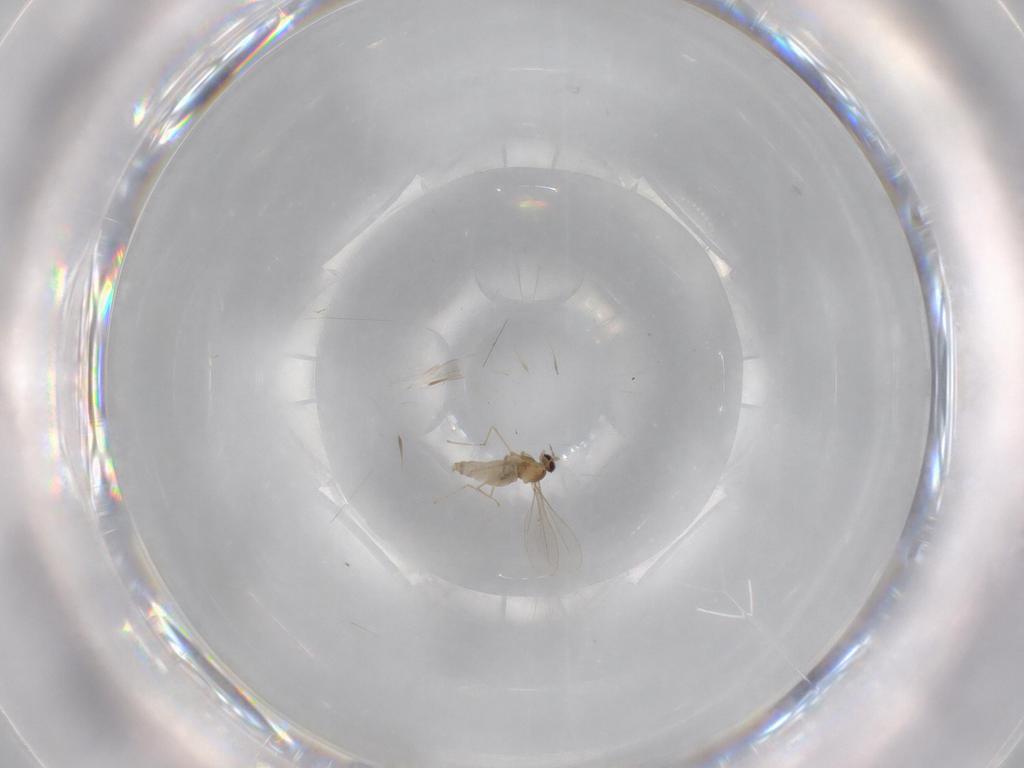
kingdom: Animalia
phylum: Arthropoda
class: Insecta
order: Diptera
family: Cecidomyiidae
